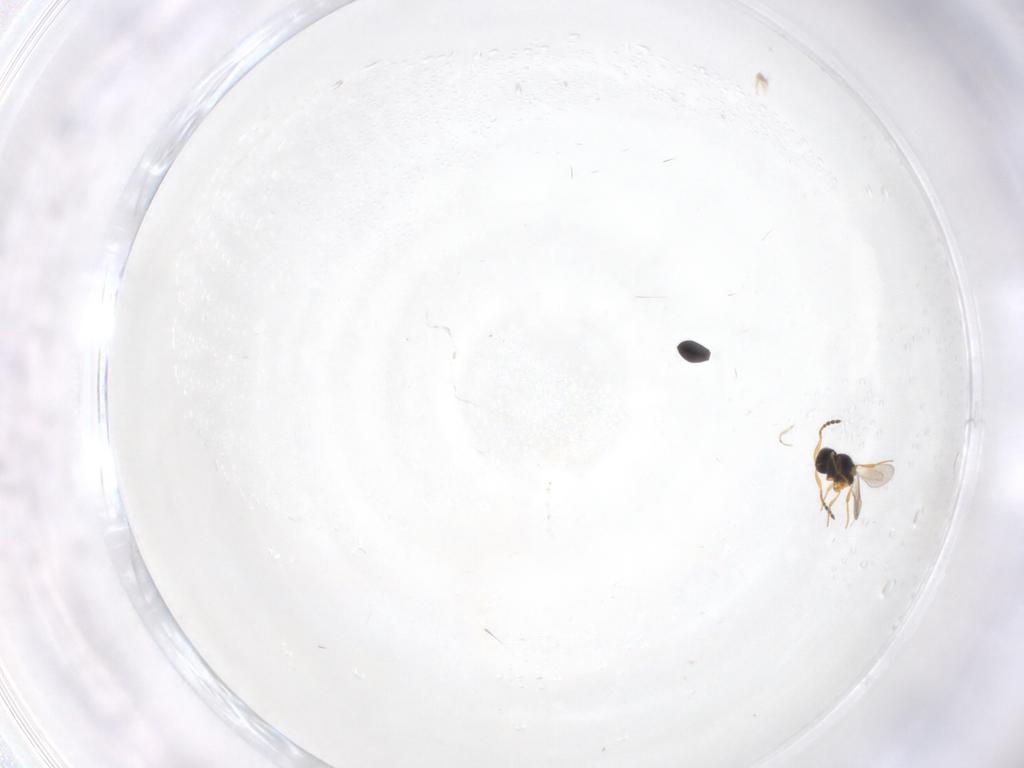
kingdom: Animalia
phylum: Arthropoda
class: Insecta
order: Hymenoptera
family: Platygastridae
